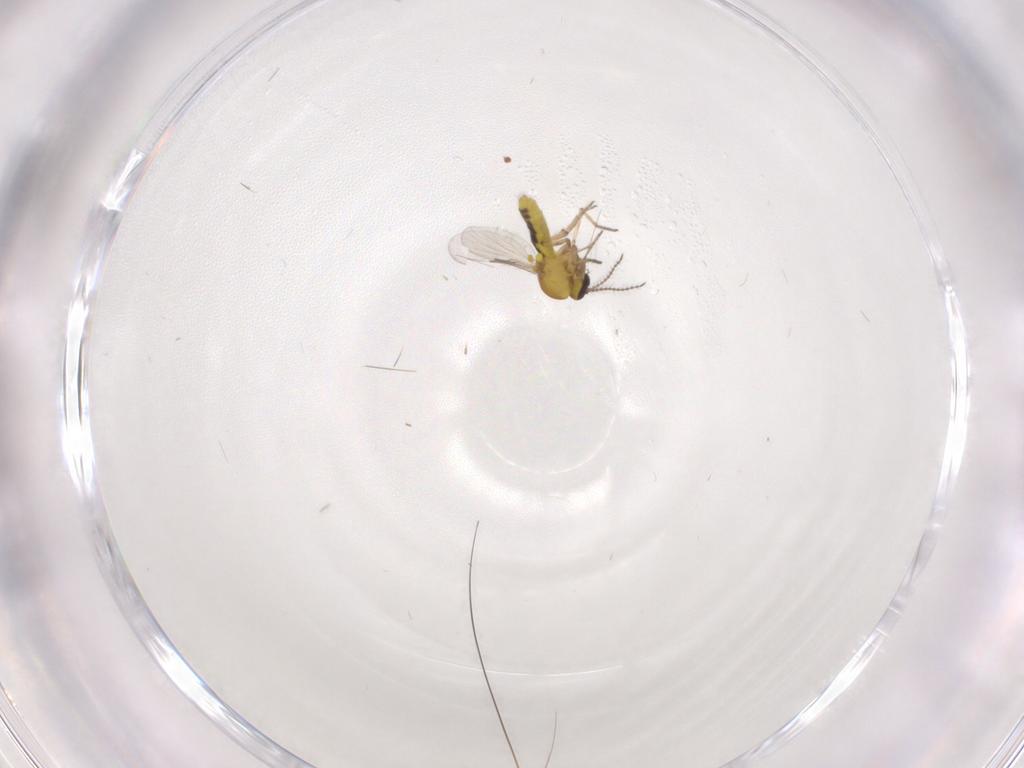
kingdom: Animalia
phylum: Arthropoda
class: Insecta
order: Diptera
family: Ceratopogonidae
